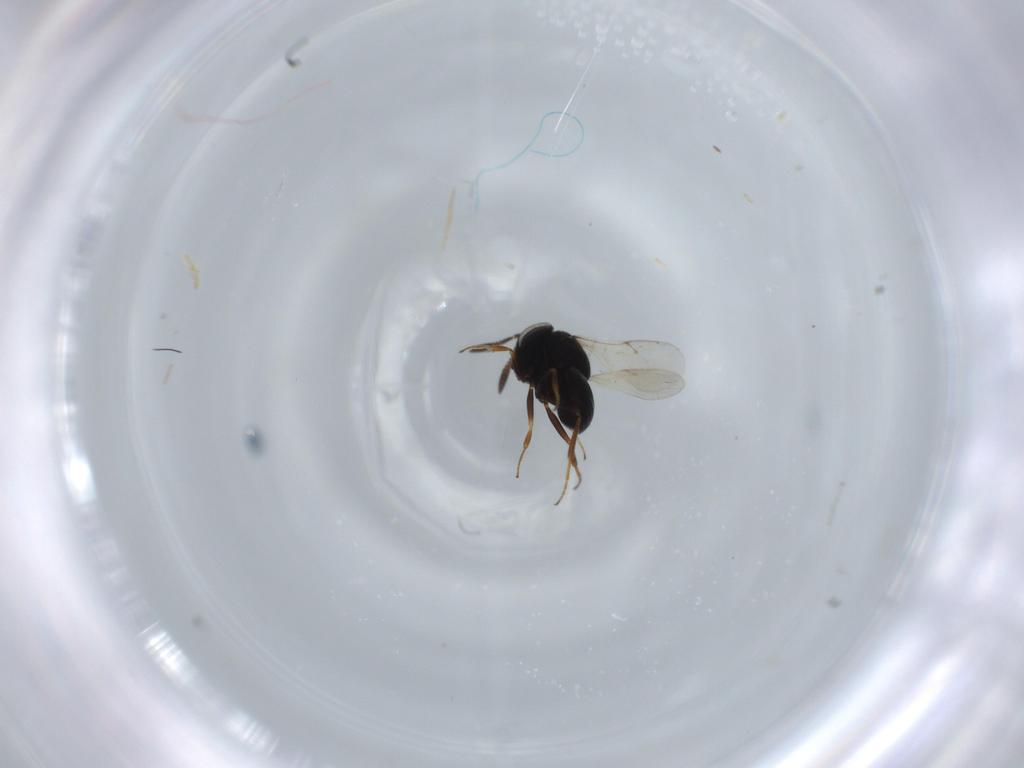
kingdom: Animalia
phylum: Arthropoda
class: Insecta
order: Hymenoptera
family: Scelionidae
